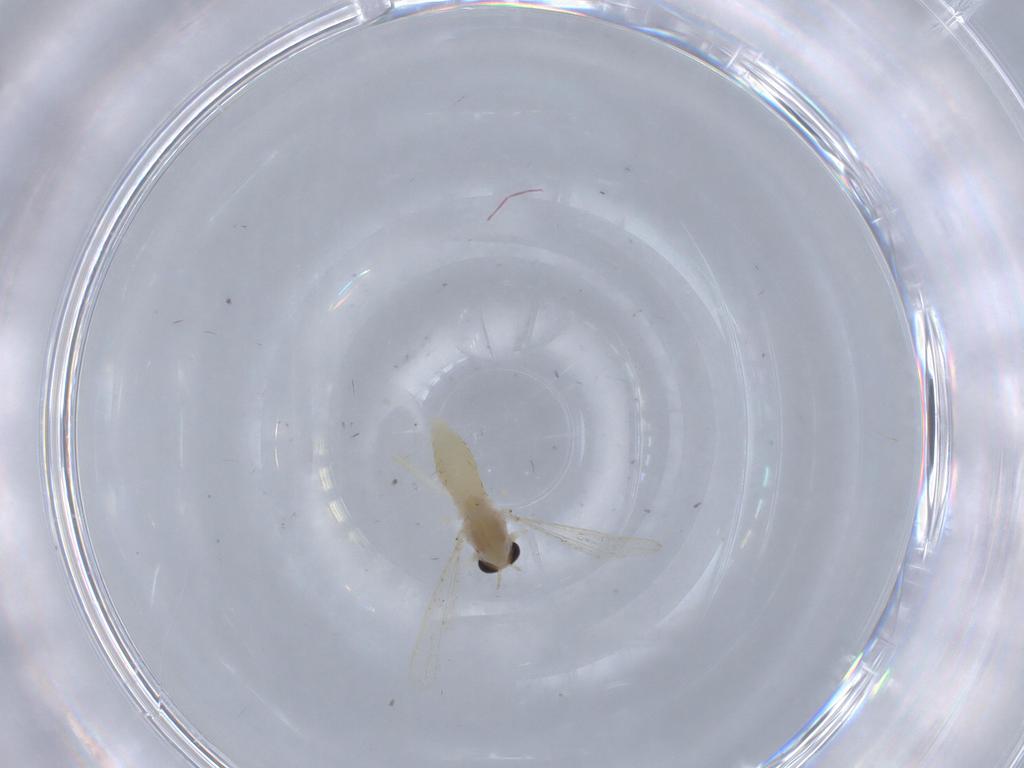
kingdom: Animalia
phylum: Arthropoda
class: Insecta
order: Diptera
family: Chironomidae
